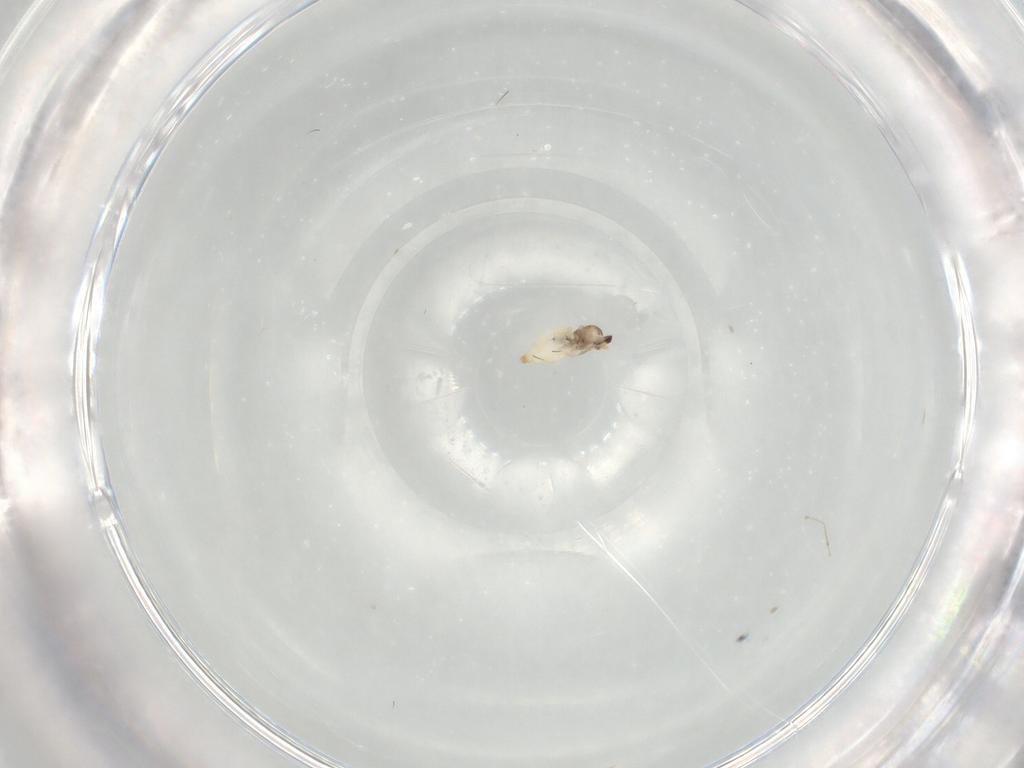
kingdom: Animalia
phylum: Arthropoda
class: Insecta
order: Diptera
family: Cecidomyiidae
